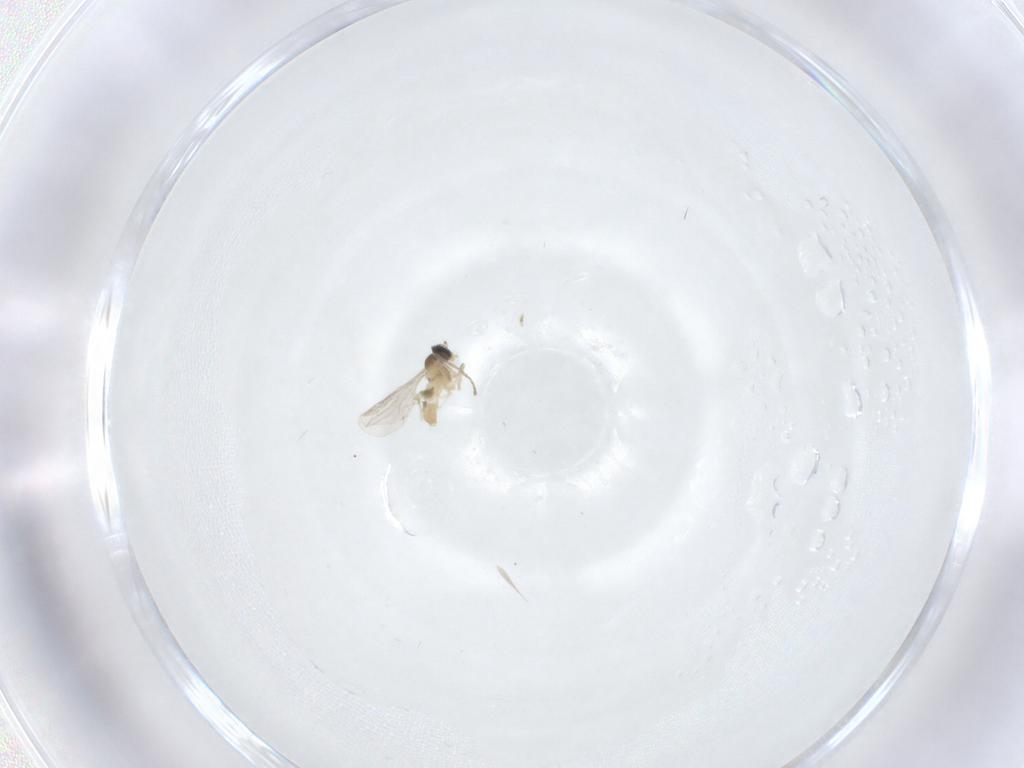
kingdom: Animalia
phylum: Arthropoda
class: Insecta
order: Diptera
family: Cecidomyiidae
